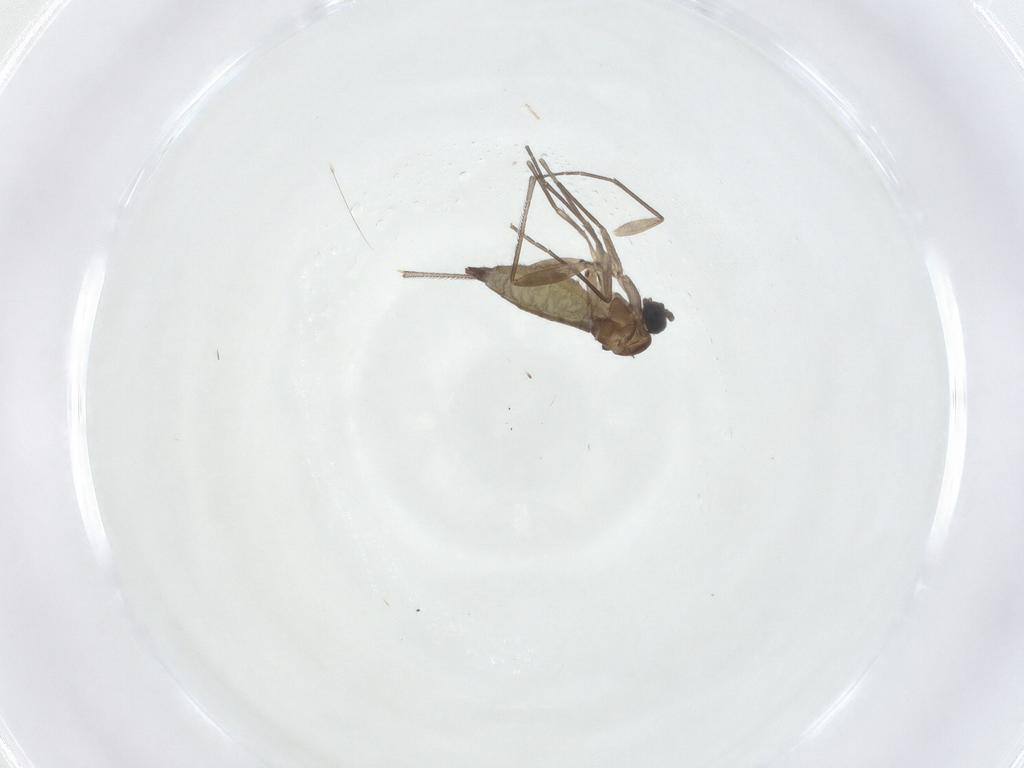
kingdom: Animalia
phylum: Arthropoda
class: Insecta
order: Diptera
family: Sciaridae
